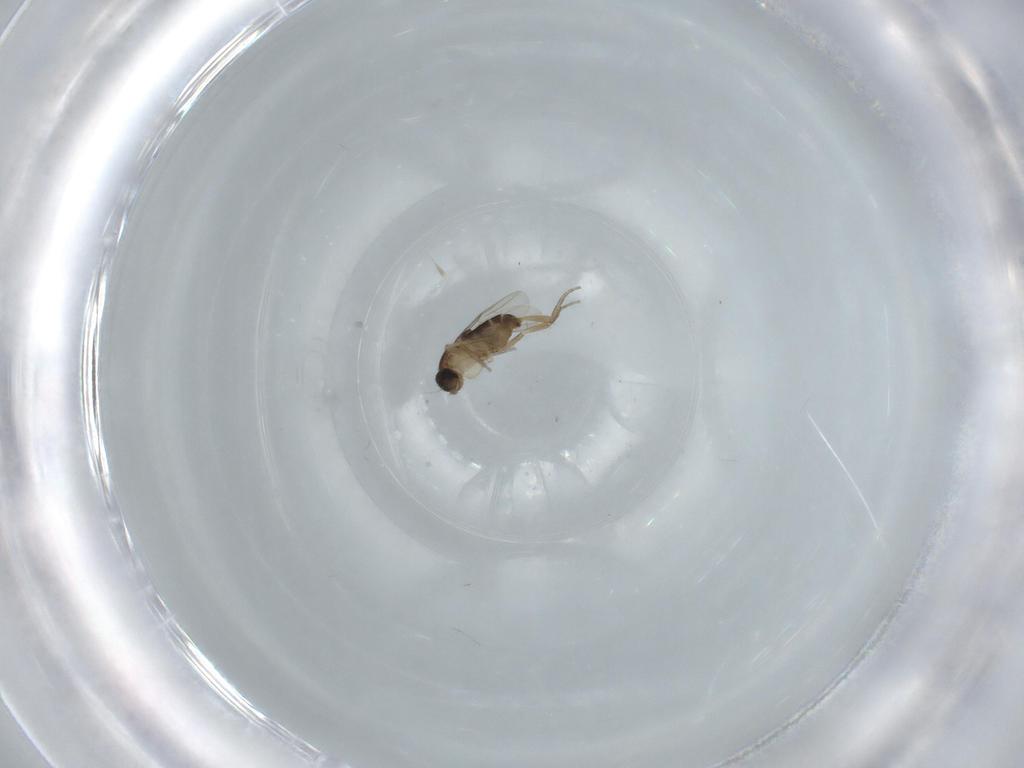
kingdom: Animalia
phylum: Arthropoda
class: Insecta
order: Diptera
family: Phoridae
